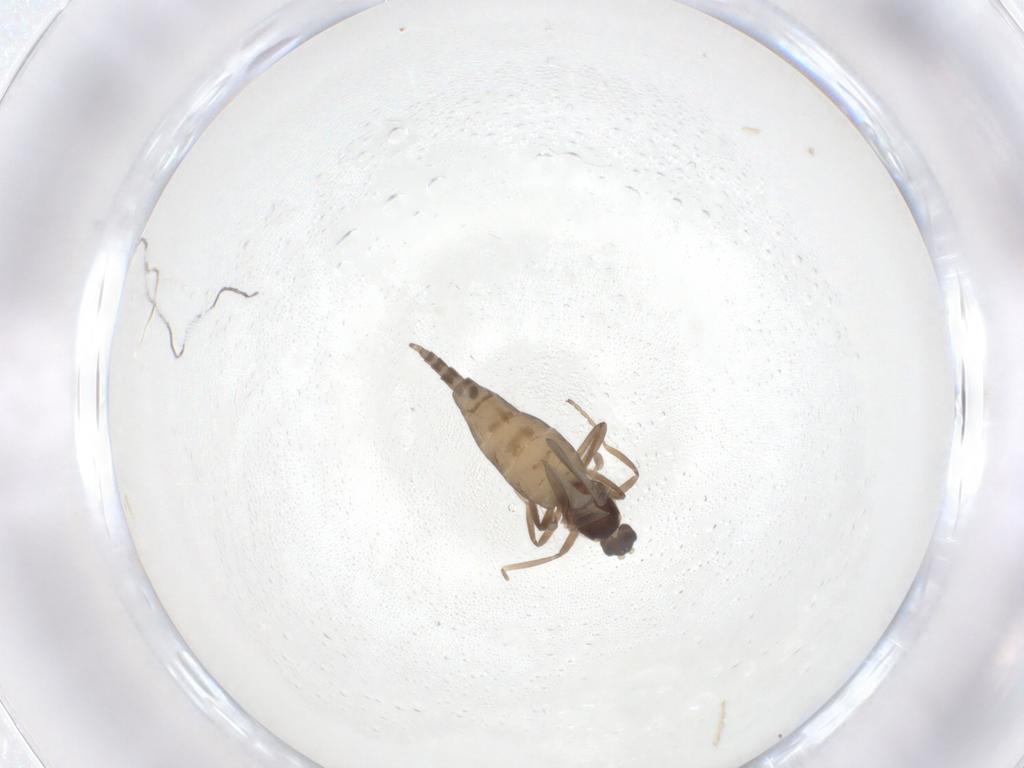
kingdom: Animalia
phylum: Arthropoda
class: Insecta
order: Diptera
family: Cecidomyiidae
